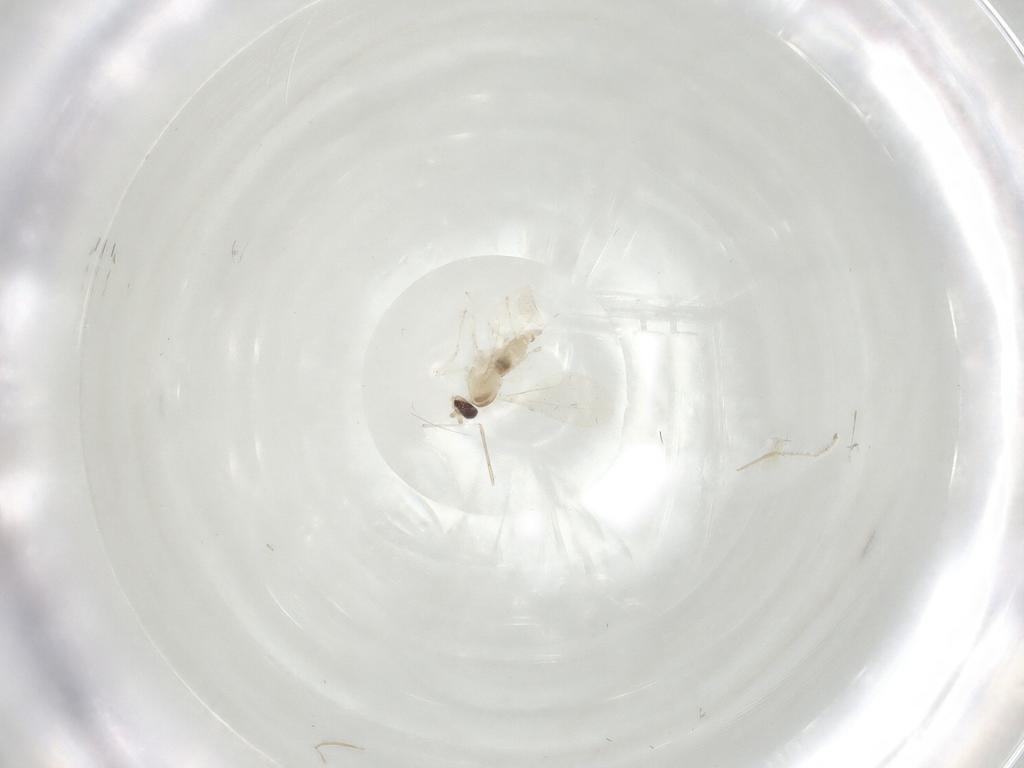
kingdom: Animalia
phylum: Arthropoda
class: Insecta
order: Diptera
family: Cecidomyiidae
